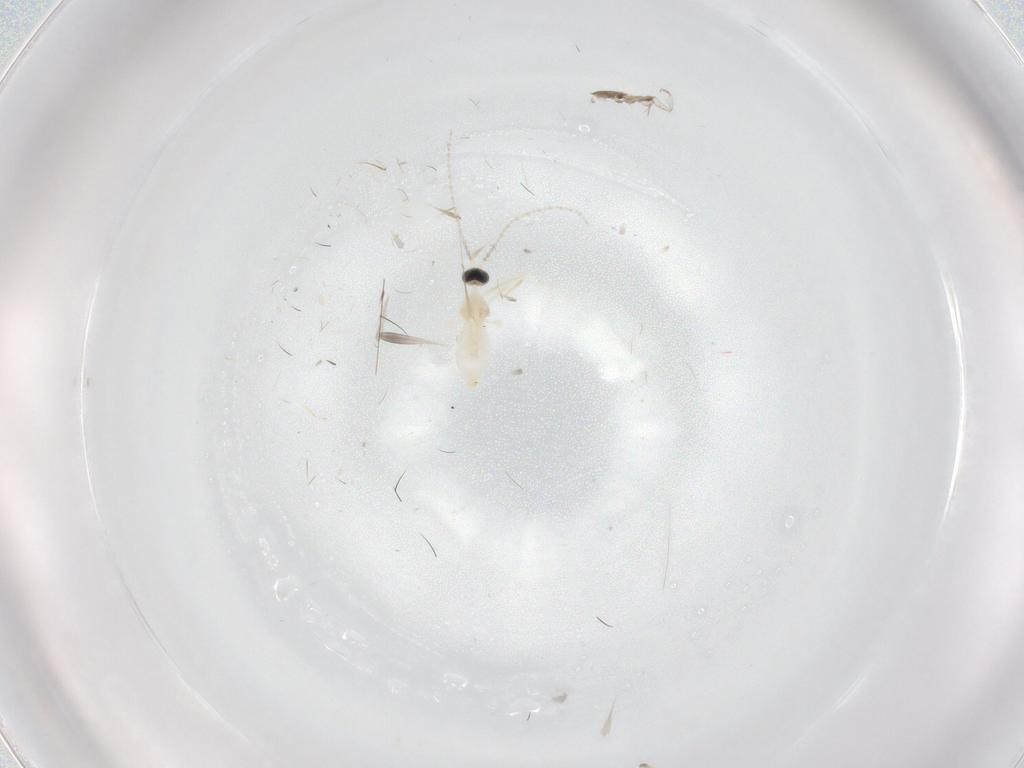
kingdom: Animalia
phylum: Arthropoda
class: Insecta
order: Diptera
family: Cecidomyiidae
